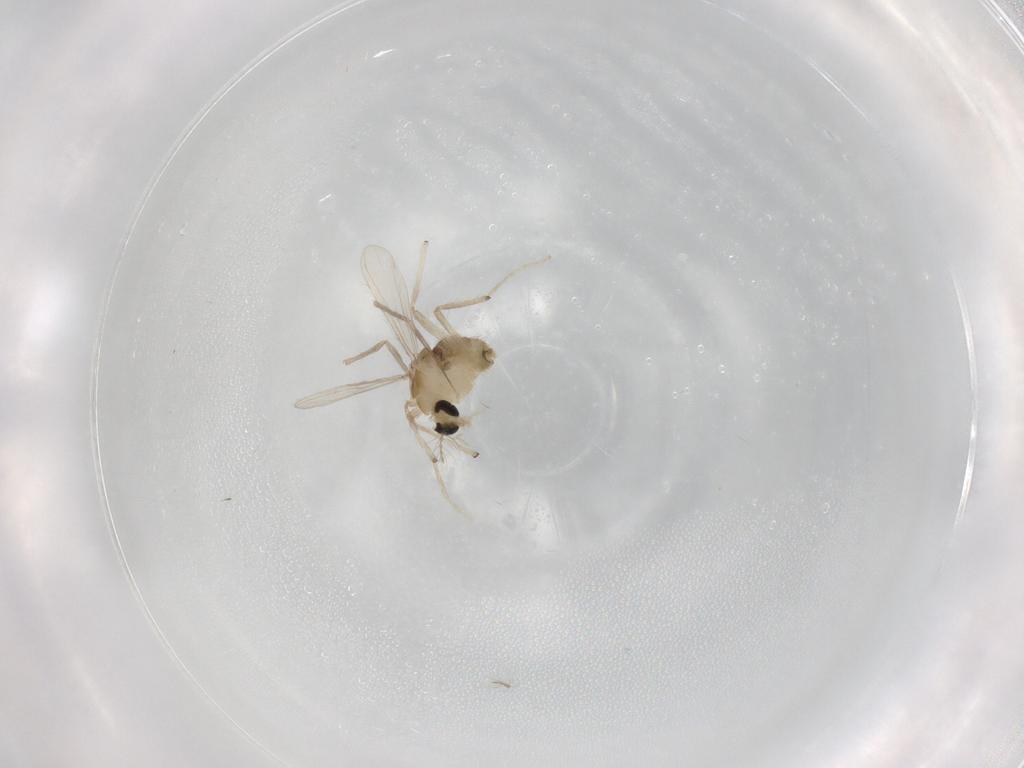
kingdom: Animalia
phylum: Arthropoda
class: Insecta
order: Diptera
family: Chironomidae
